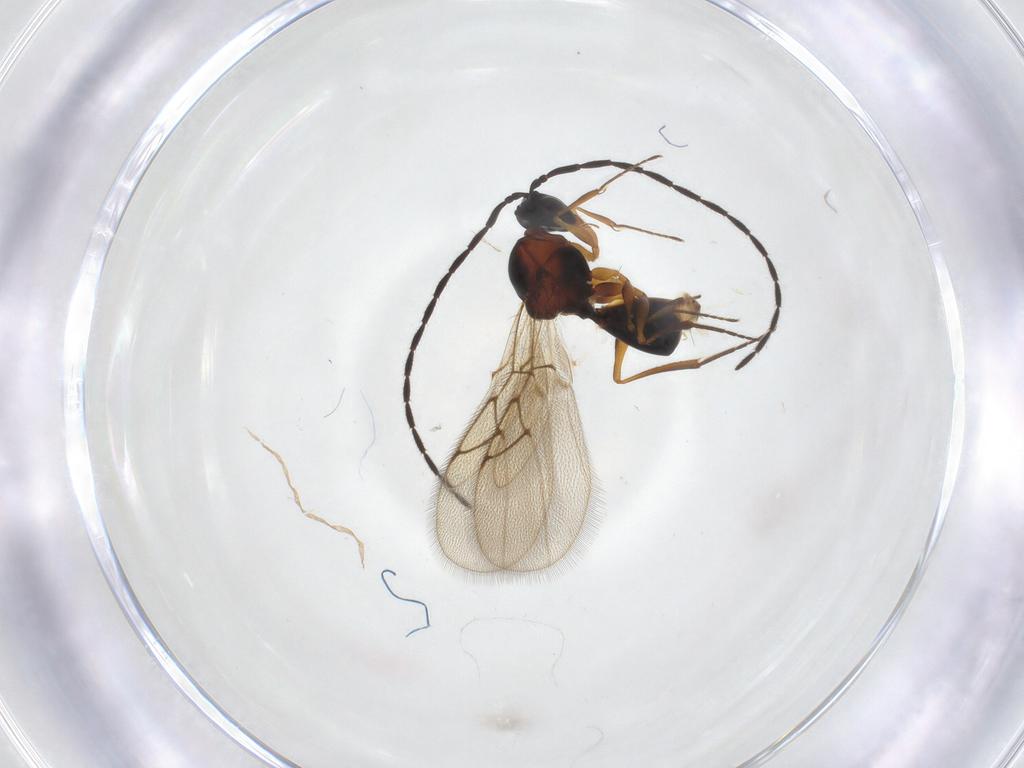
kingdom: Animalia
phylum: Arthropoda
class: Insecta
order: Hymenoptera
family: Figitidae
